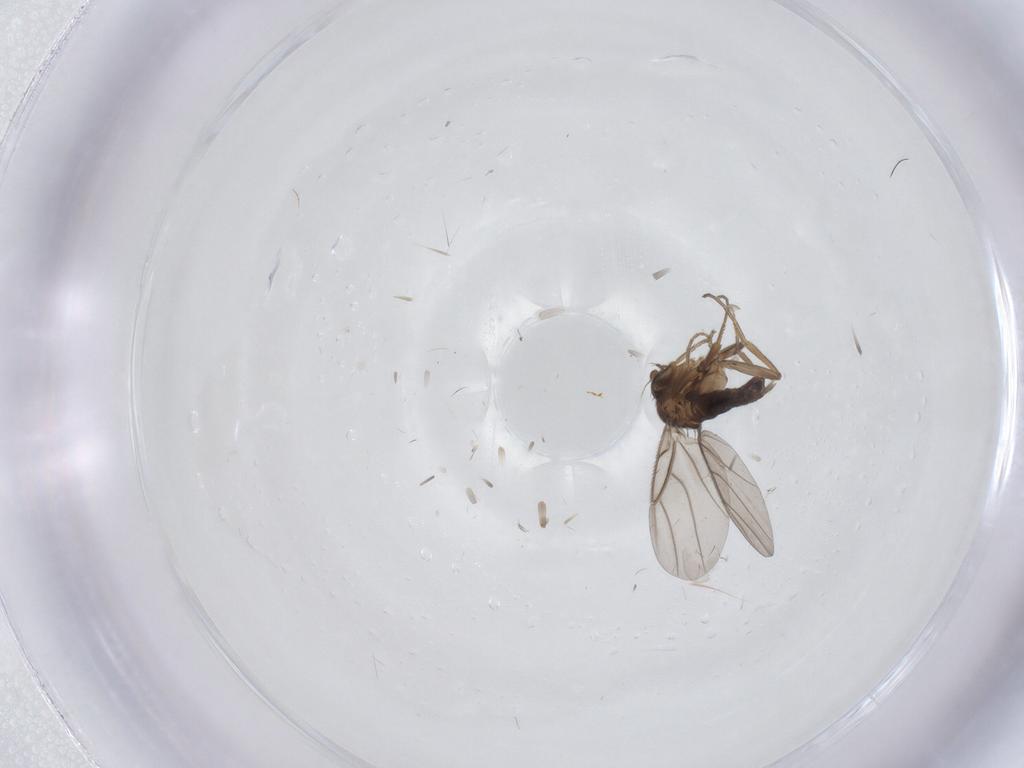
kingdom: Animalia
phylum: Arthropoda
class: Insecta
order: Diptera
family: Phoridae
